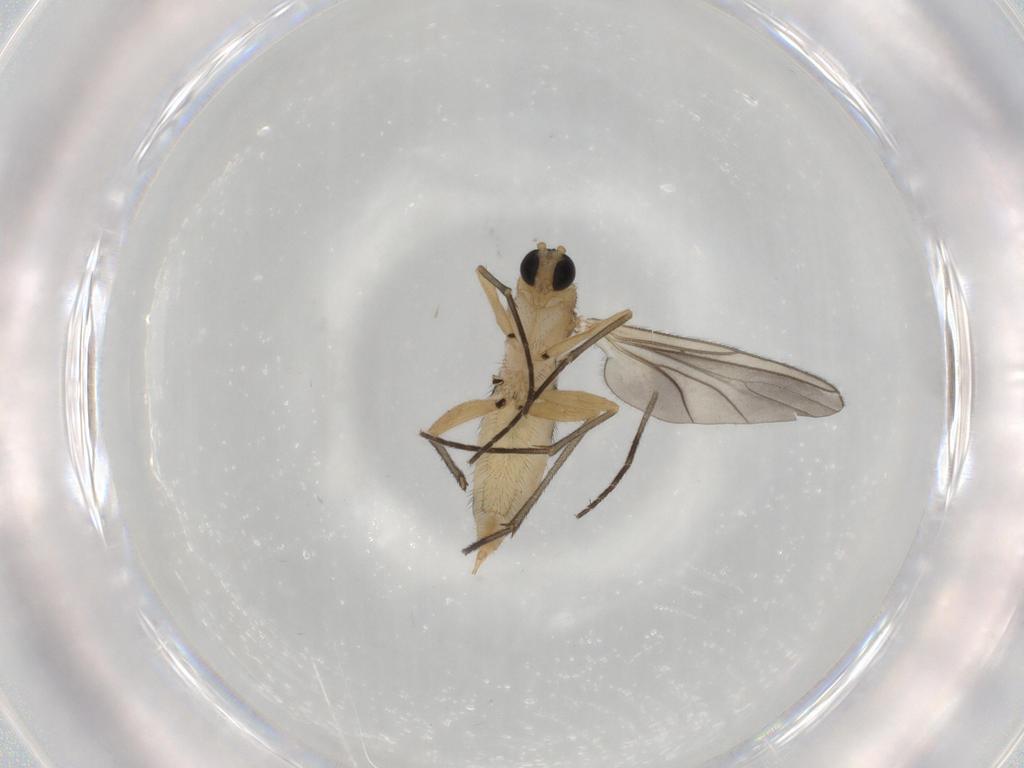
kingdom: Animalia
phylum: Arthropoda
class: Insecta
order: Diptera
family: Sciaridae
